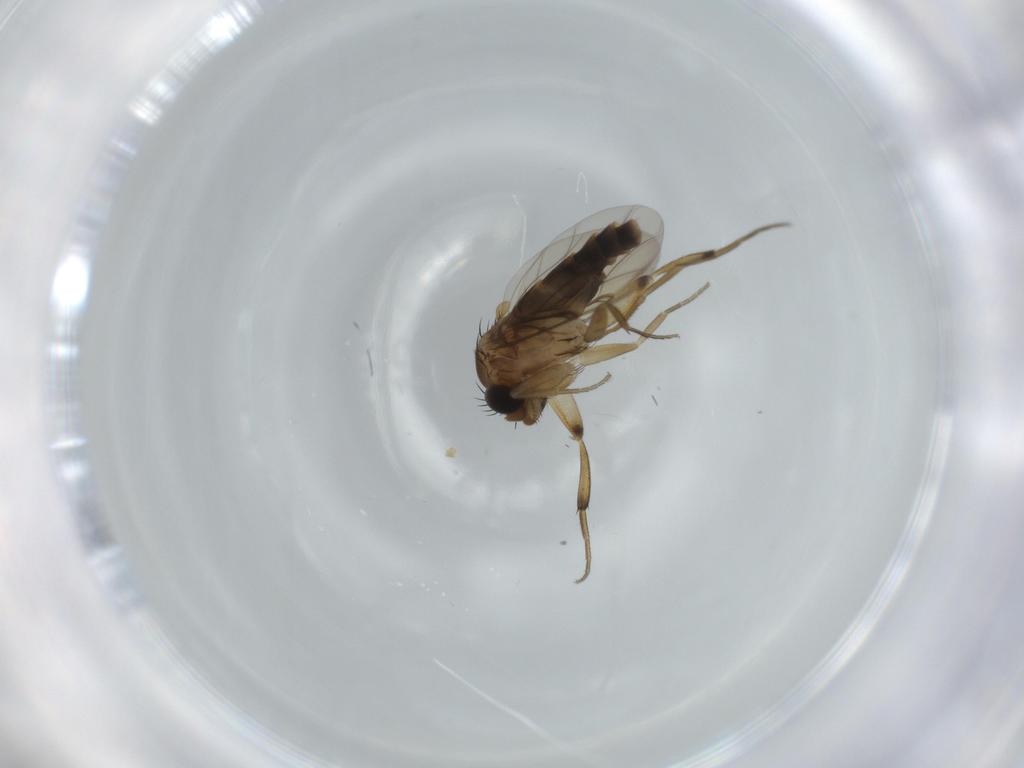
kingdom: Animalia
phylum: Arthropoda
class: Insecta
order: Diptera
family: Phoridae
